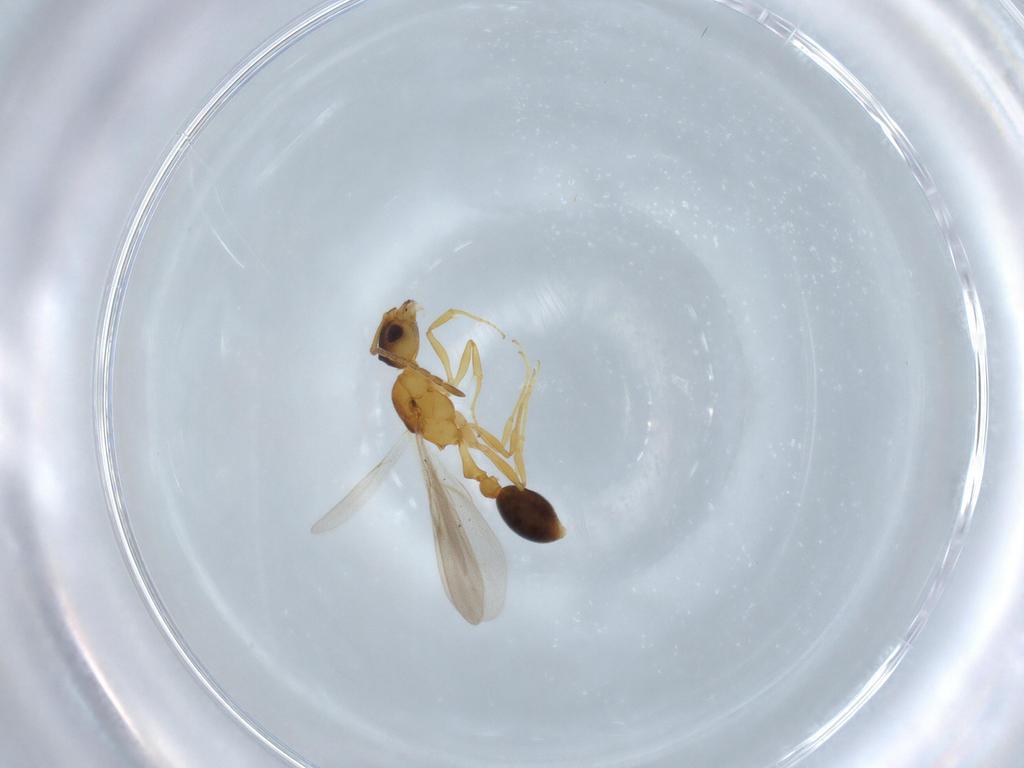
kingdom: Animalia
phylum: Arthropoda
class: Insecta
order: Hymenoptera
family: Formicidae
